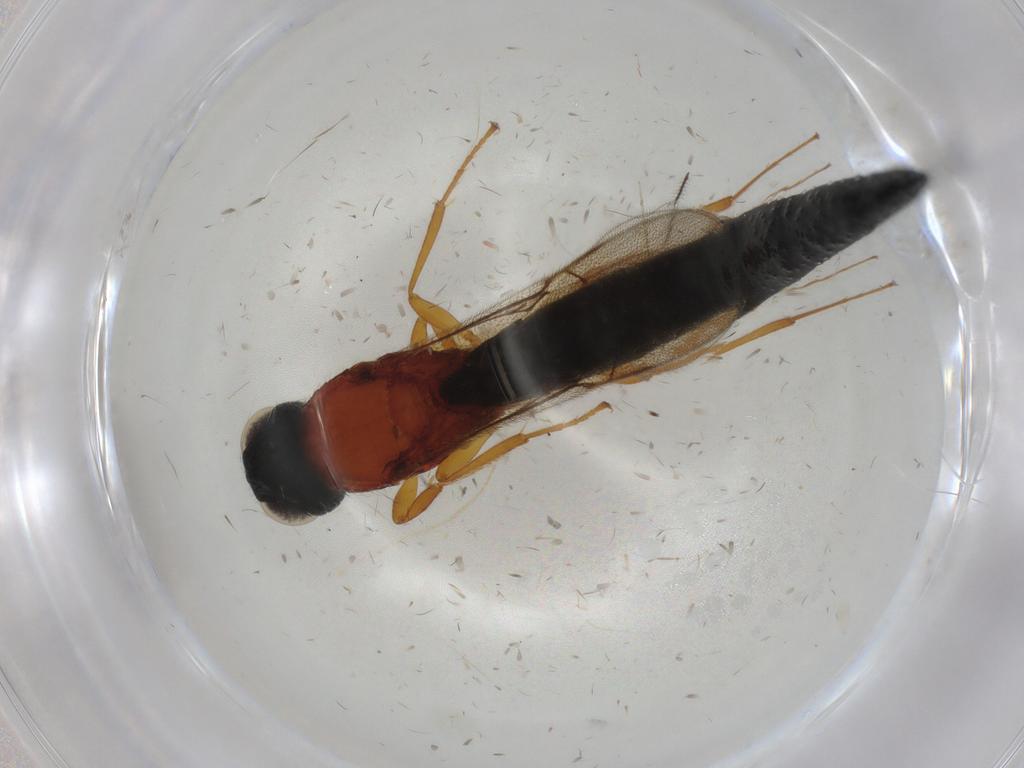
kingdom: Animalia
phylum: Arthropoda
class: Insecta
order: Hymenoptera
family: Scelionidae
